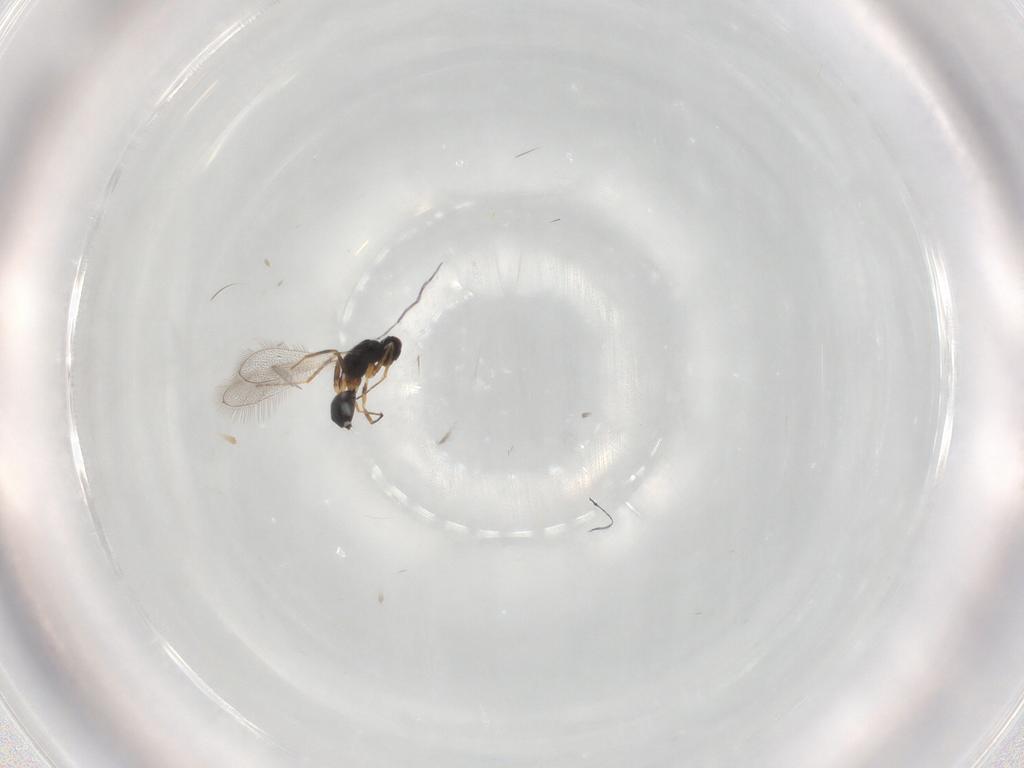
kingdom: Animalia
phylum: Arthropoda
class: Insecta
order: Hymenoptera
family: Mymaridae
